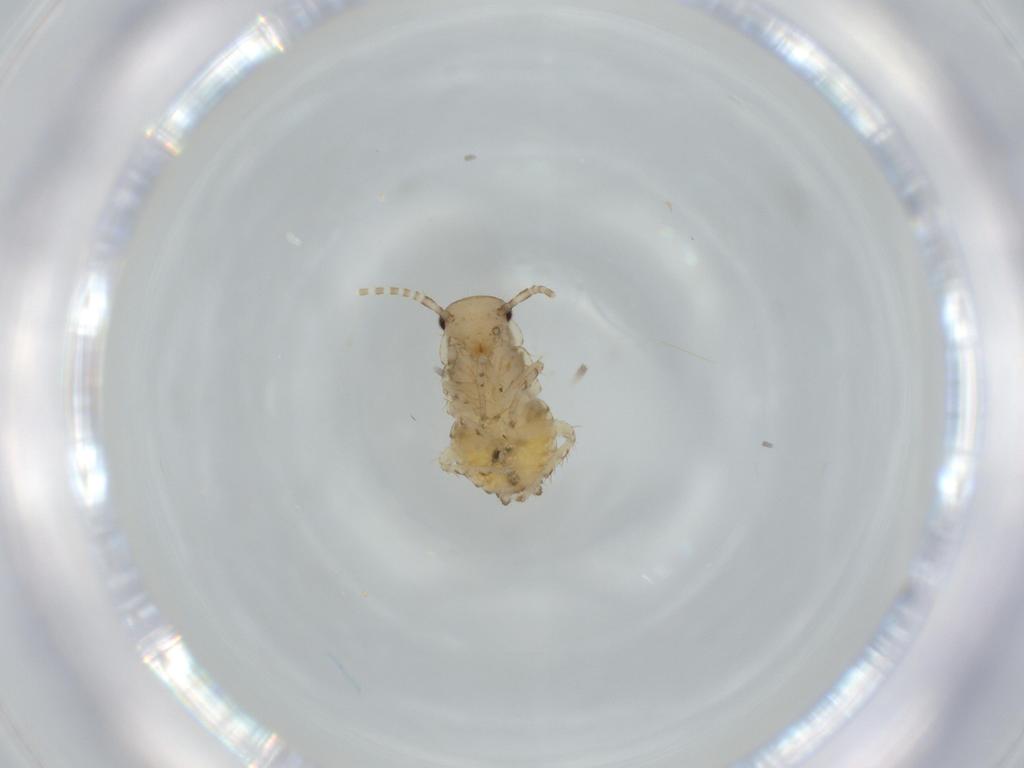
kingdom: Animalia
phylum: Arthropoda
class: Insecta
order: Blattodea
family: Ectobiidae
